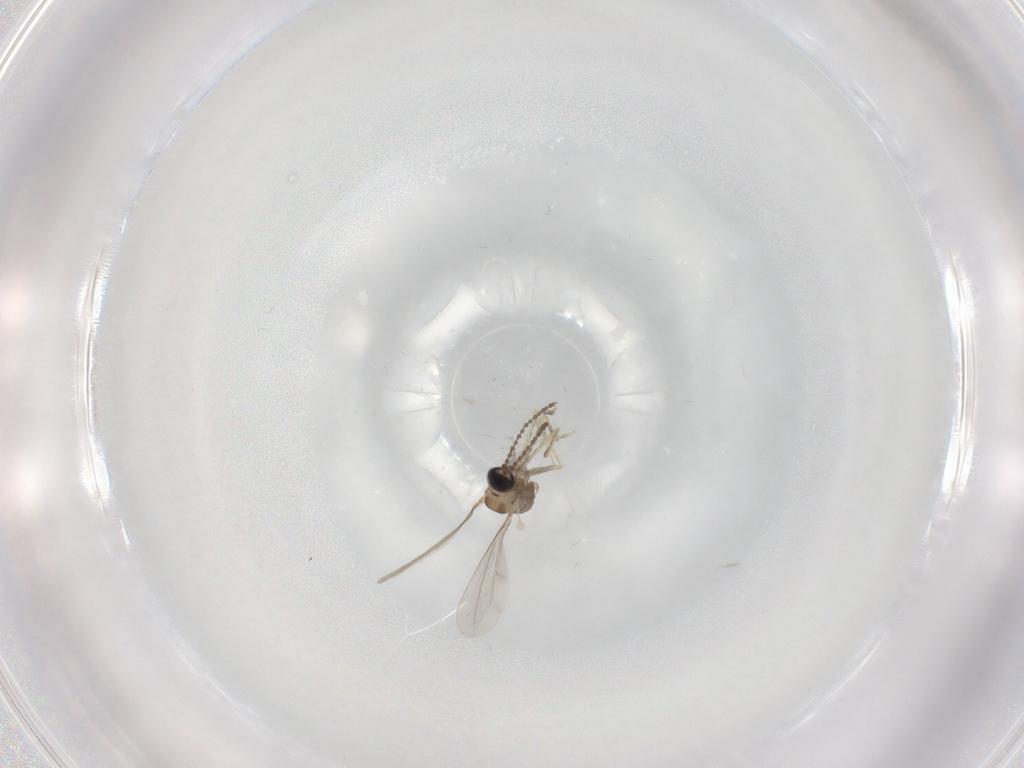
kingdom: Animalia
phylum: Arthropoda
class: Insecta
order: Diptera
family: Cecidomyiidae
